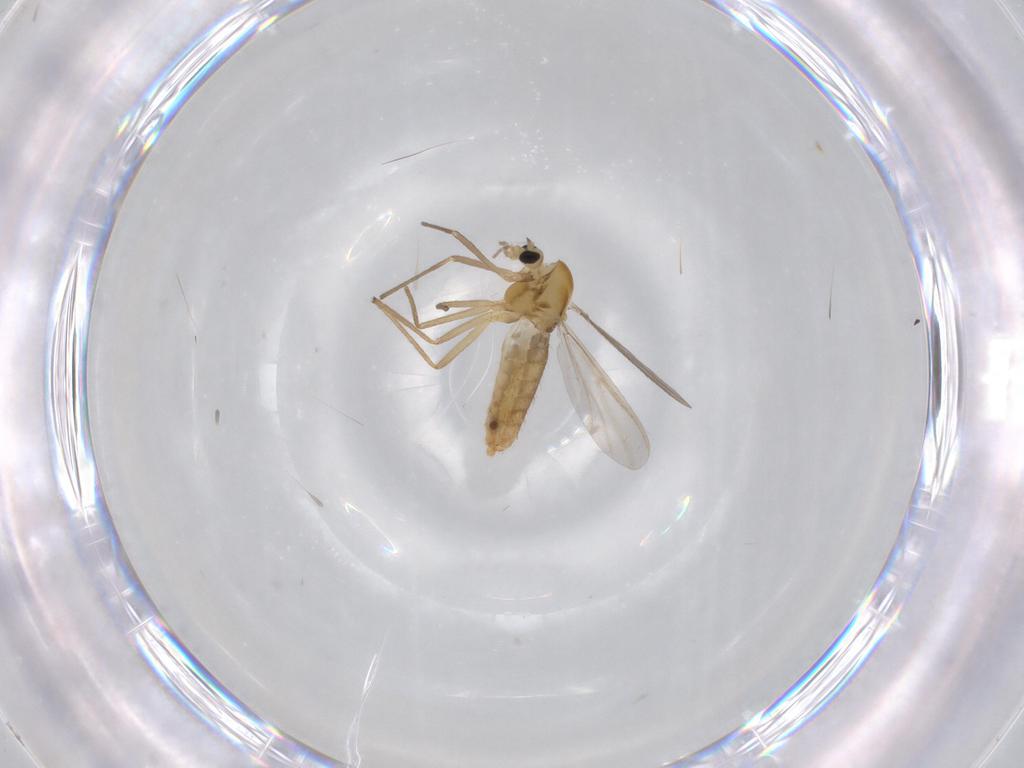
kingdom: Animalia
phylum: Arthropoda
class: Insecta
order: Diptera
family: Chironomidae
